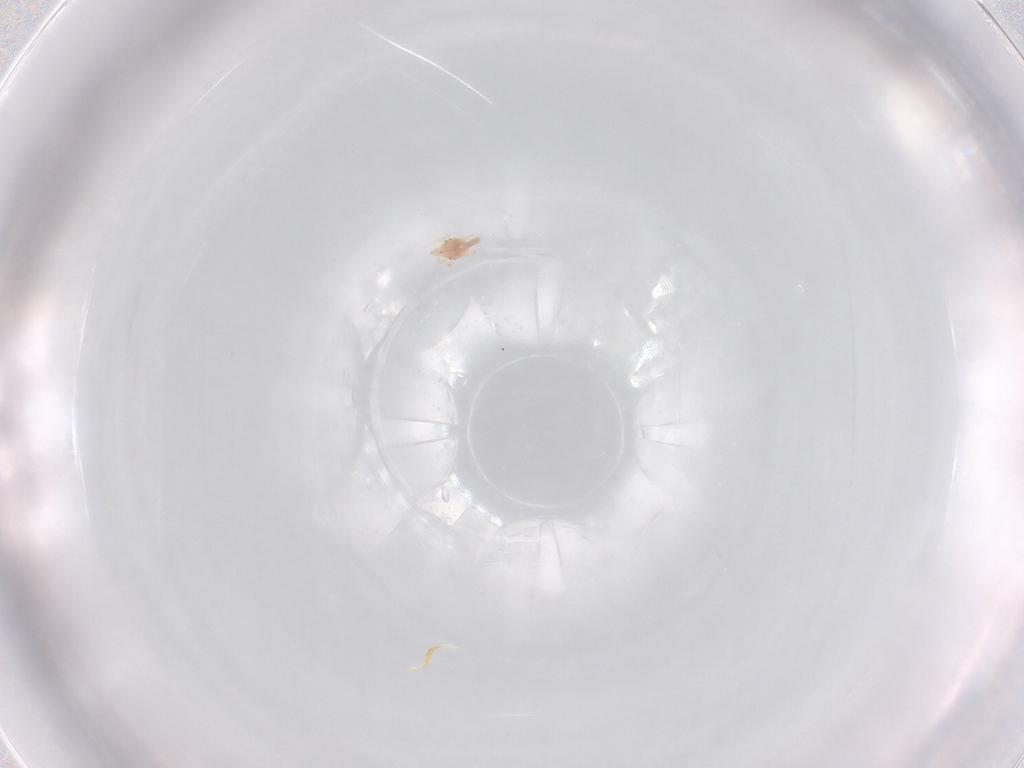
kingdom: Animalia
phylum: Arthropoda
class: Arachnida
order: Trombidiformes
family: Bdellidae
